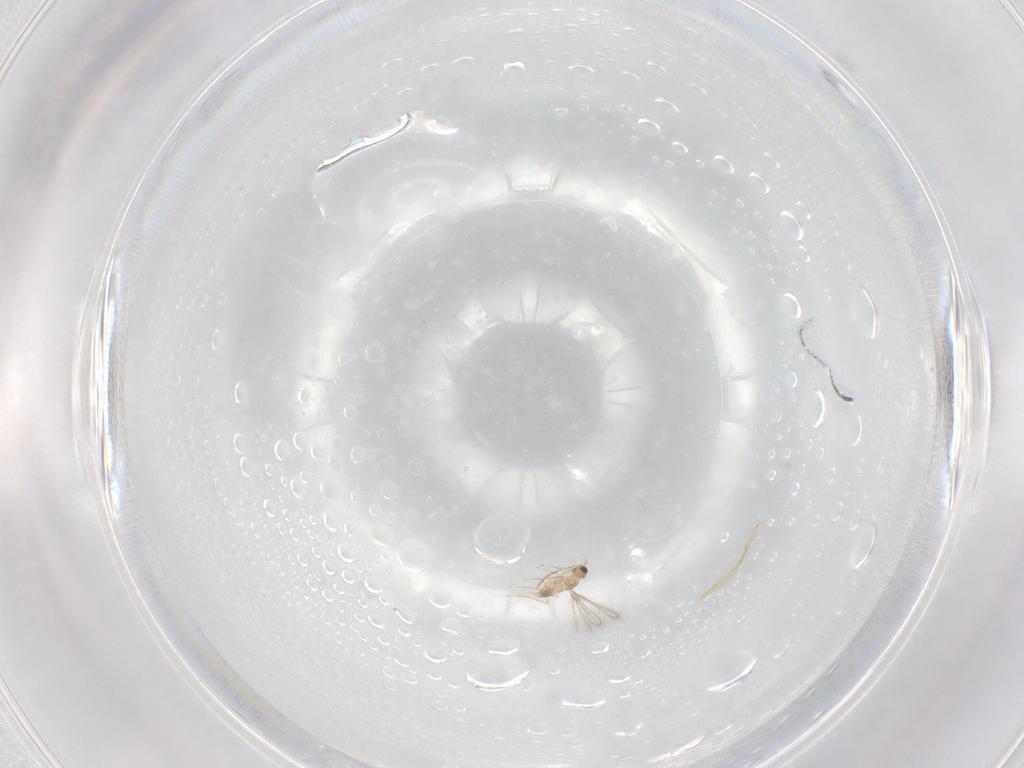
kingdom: Animalia
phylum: Arthropoda
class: Insecta
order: Hymenoptera
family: Mymaridae
